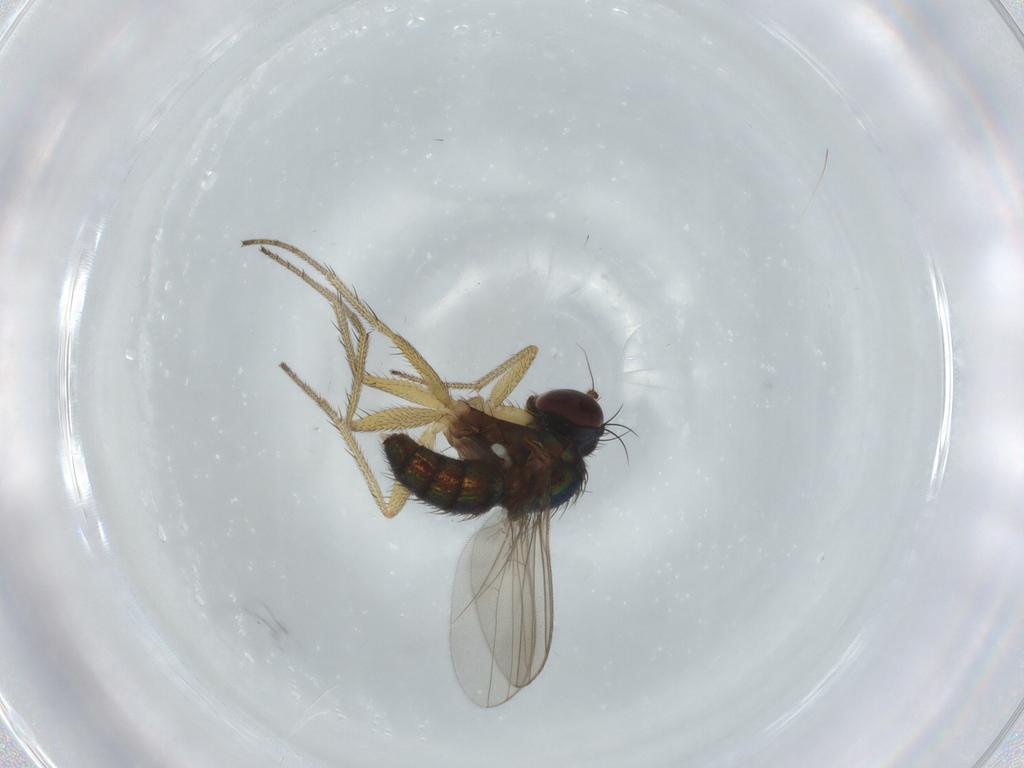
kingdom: Animalia
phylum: Arthropoda
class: Insecta
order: Diptera
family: Dolichopodidae
